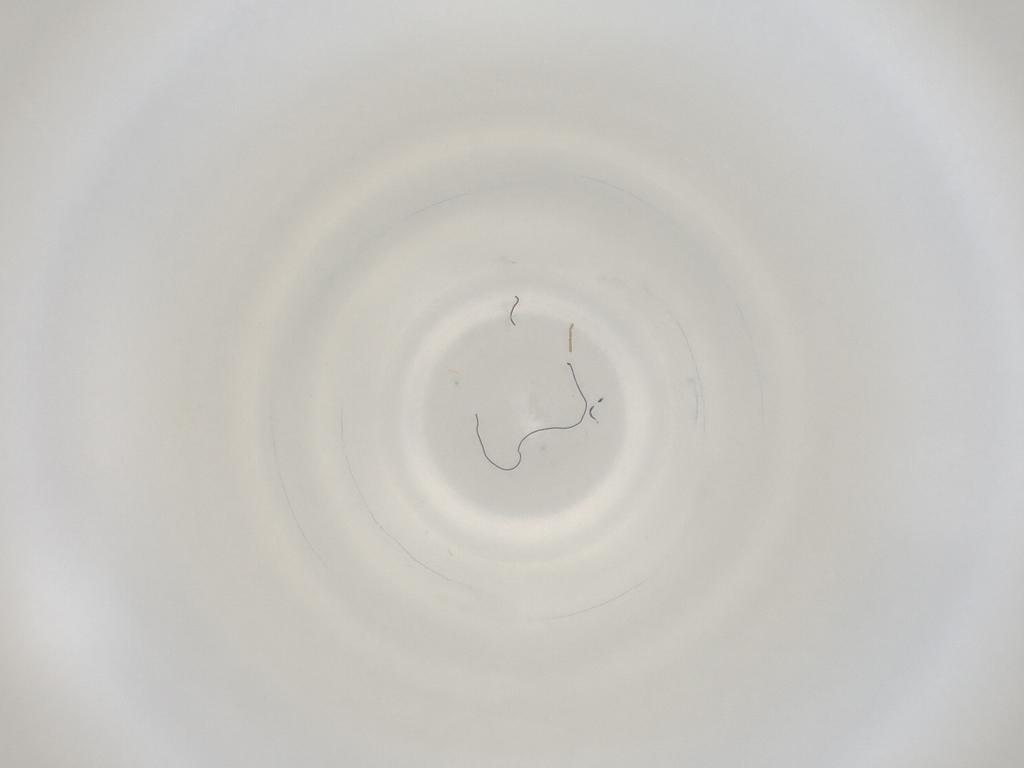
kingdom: Animalia
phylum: Arthropoda
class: Insecta
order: Diptera
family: Cecidomyiidae
